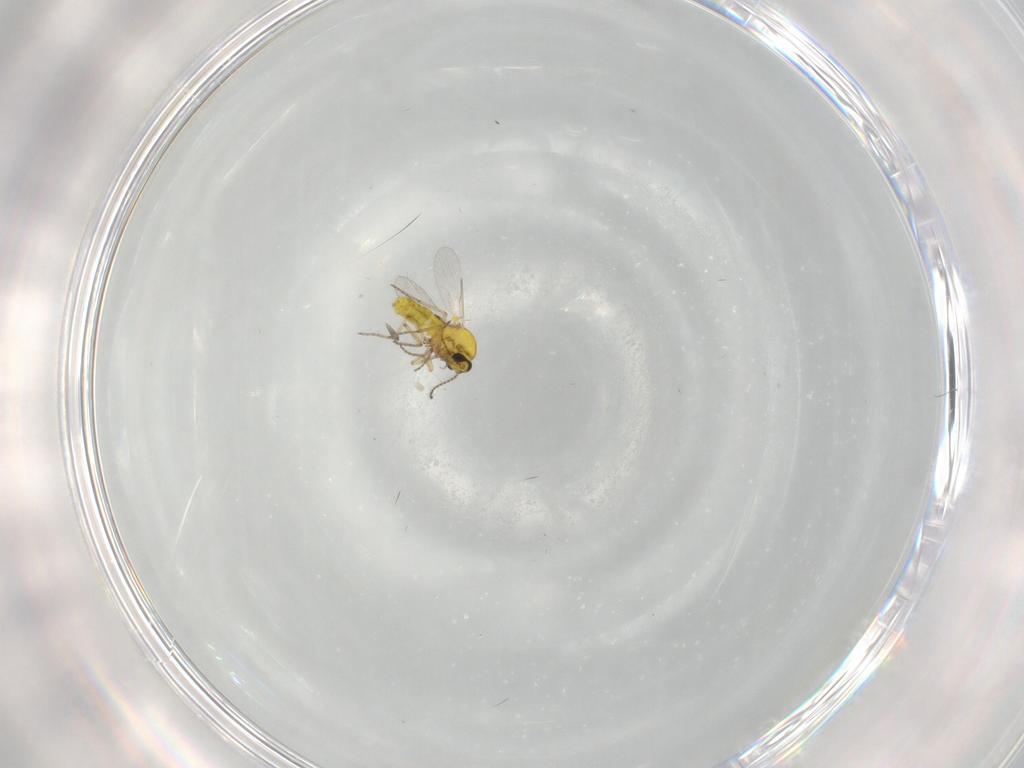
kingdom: Animalia
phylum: Arthropoda
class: Insecta
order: Diptera
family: Ceratopogonidae
